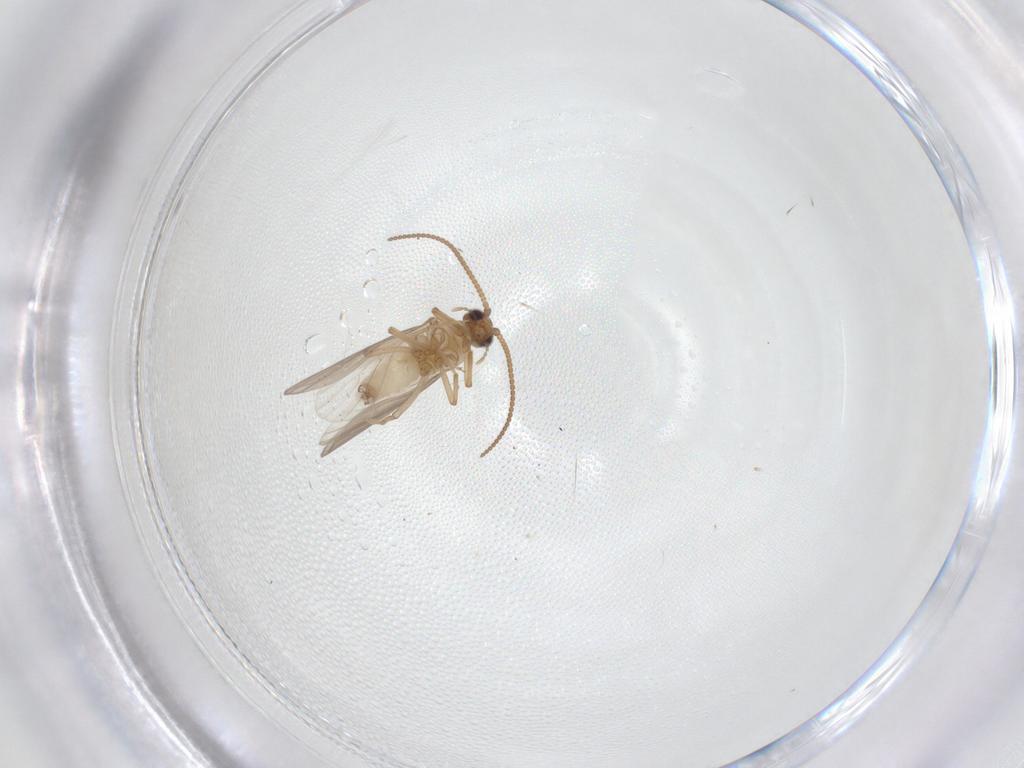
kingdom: Animalia
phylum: Arthropoda
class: Insecta
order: Neuroptera
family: Coniopterygidae
